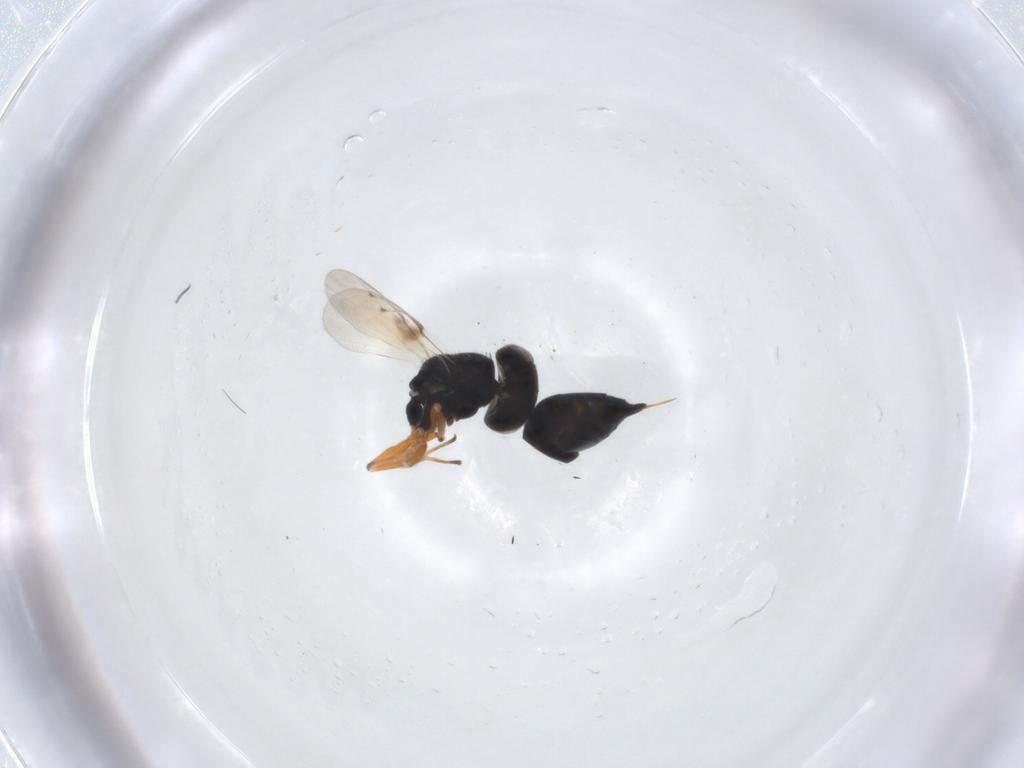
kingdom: Animalia
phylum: Arthropoda
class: Insecta
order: Hymenoptera
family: Pteromalidae
